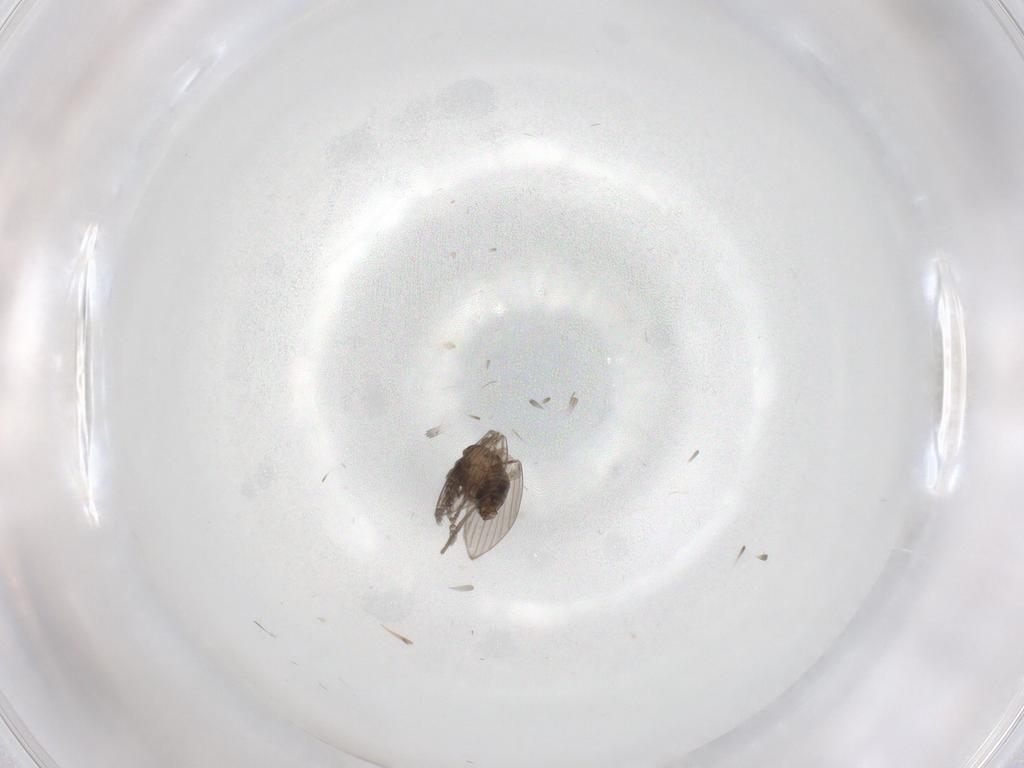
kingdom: Animalia
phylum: Arthropoda
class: Insecta
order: Diptera
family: Psychodidae
